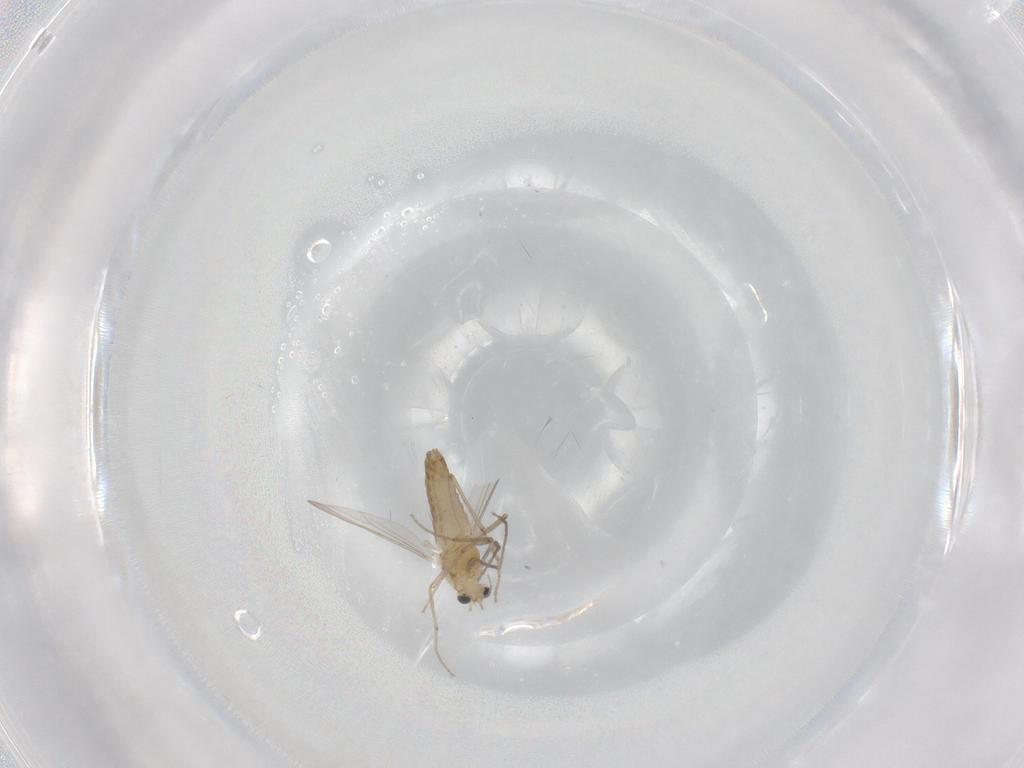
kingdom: Animalia
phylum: Arthropoda
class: Insecta
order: Diptera
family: Chironomidae
